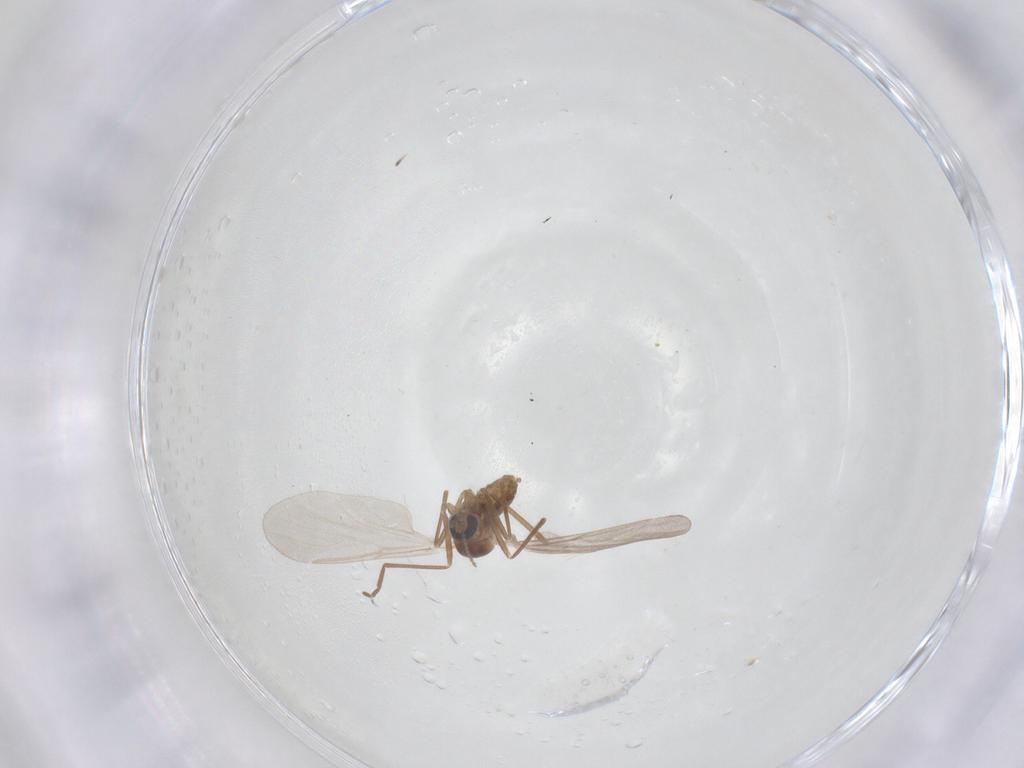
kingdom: Animalia
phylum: Arthropoda
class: Insecta
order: Diptera
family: Cecidomyiidae
